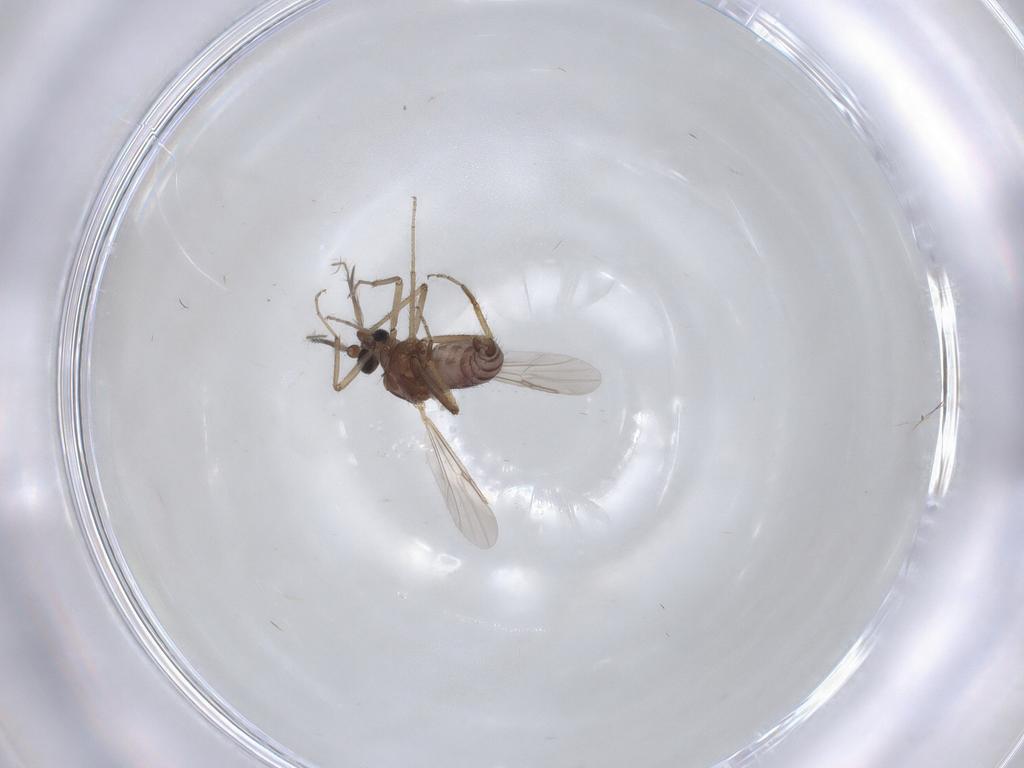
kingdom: Animalia
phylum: Arthropoda
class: Insecta
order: Diptera
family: Ceratopogonidae
